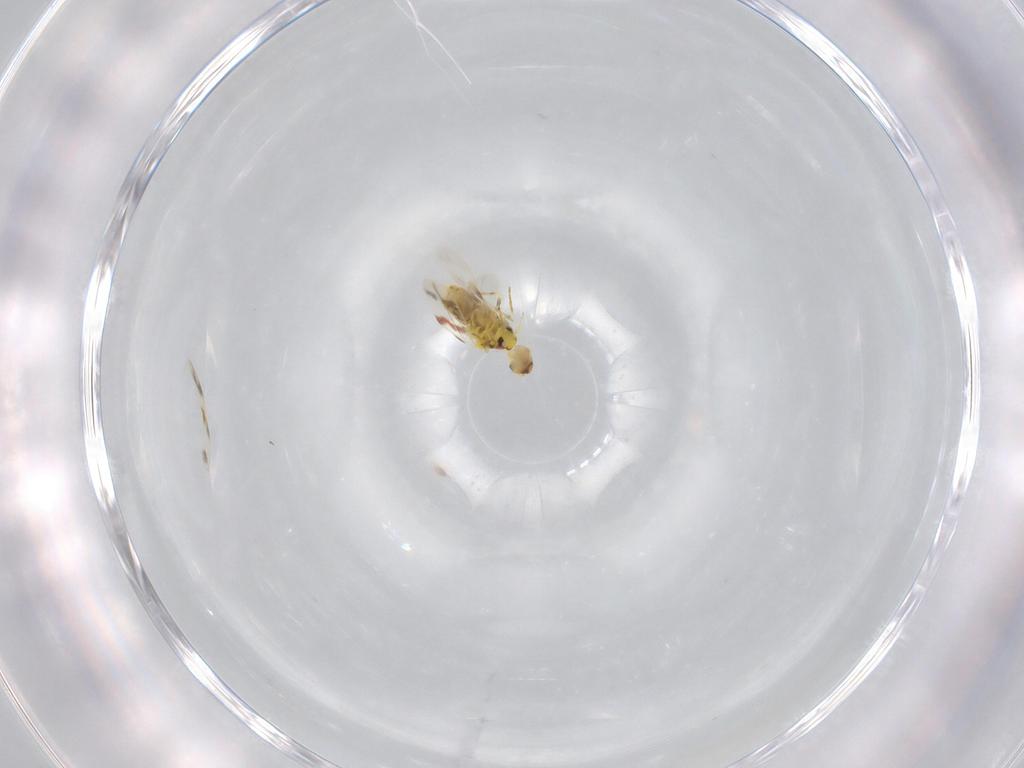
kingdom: Animalia
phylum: Arthropoda
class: Insecta
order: Hemiptera
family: Aleyrodidae
